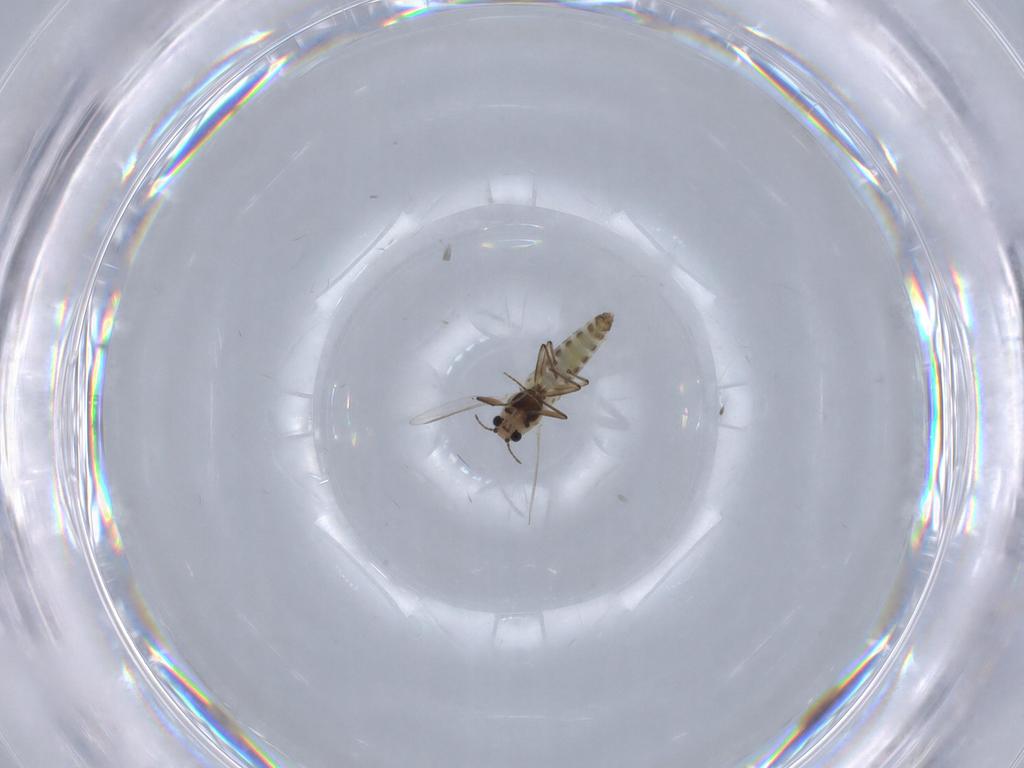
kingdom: Animalia
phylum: Arthropoda
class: Insecta
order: Diptera
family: Chironomidae
